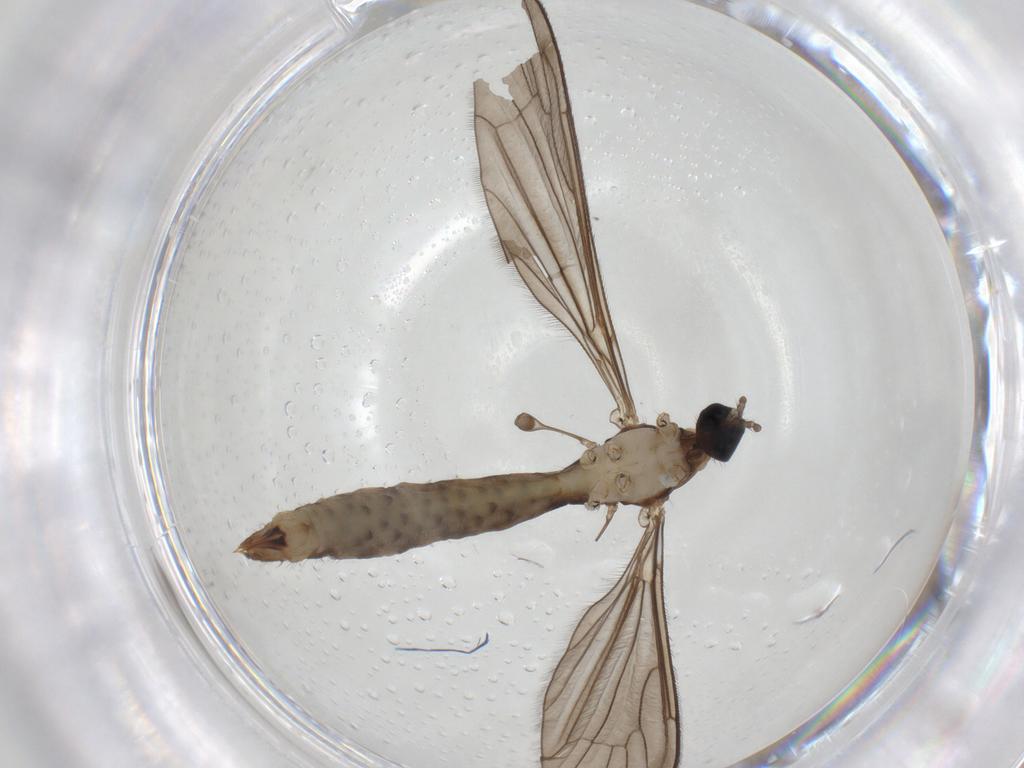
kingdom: Animalia
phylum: Arthropoda
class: Insecta
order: Diptera
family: Limoniidae
